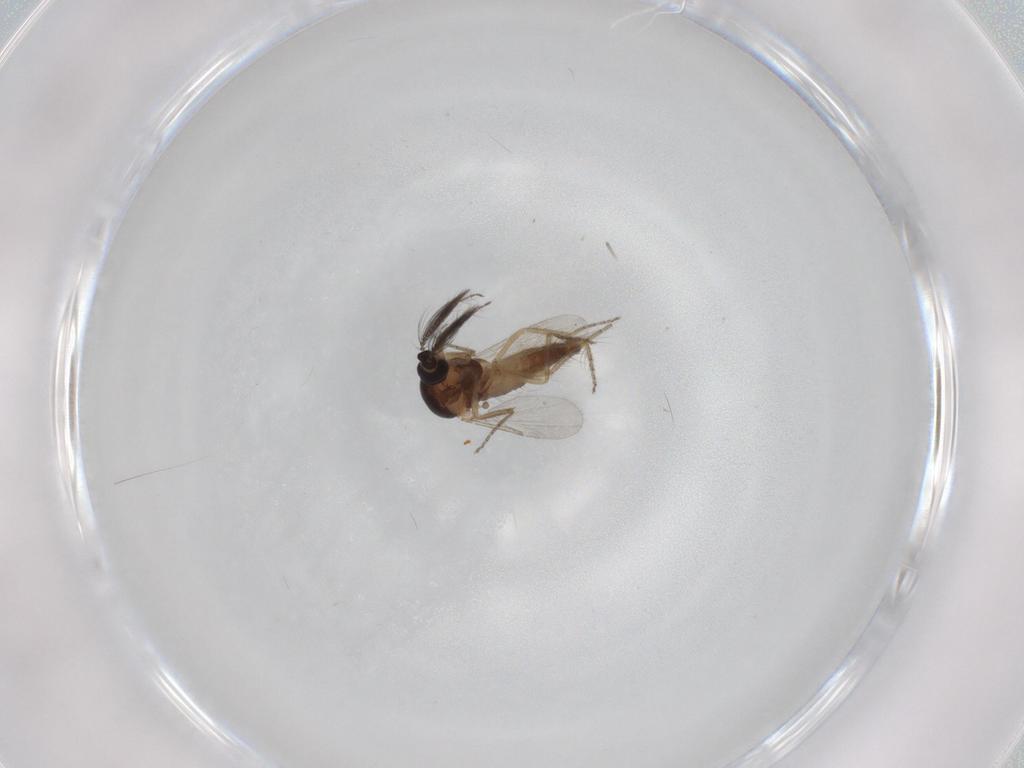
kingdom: Animalia
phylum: Arthropoda
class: Insecta
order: Diptera
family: Ceratopogonidae
